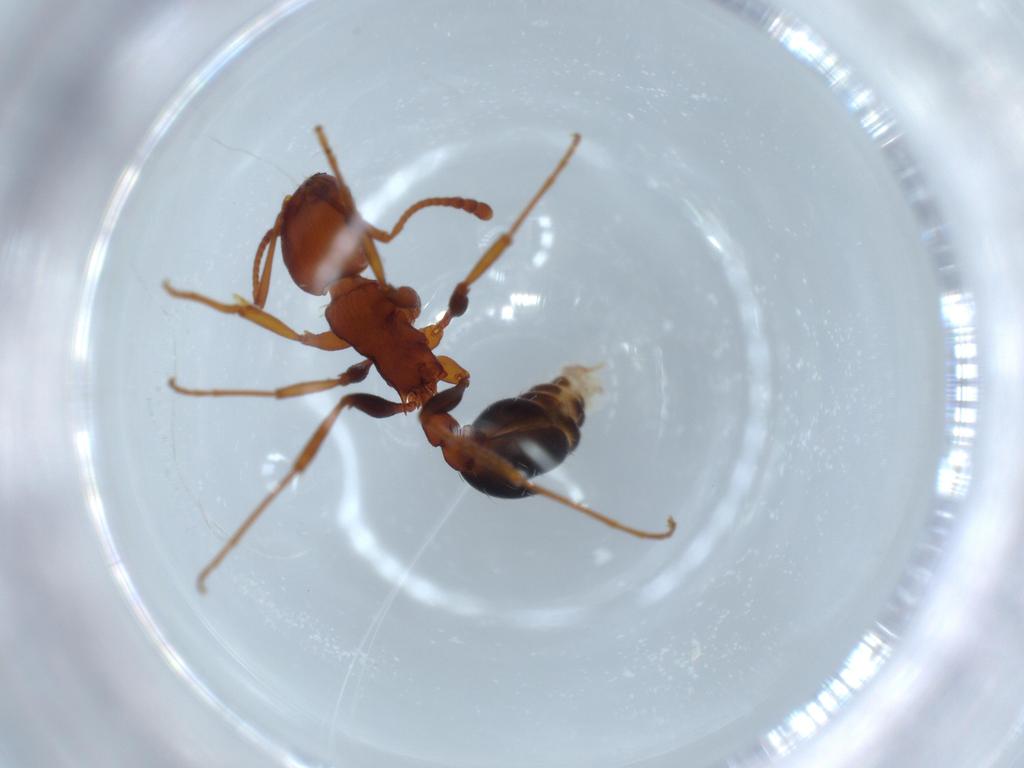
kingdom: Animalia
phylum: Arthropoda
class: Insecta
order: Hymenoptera
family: Formicidae
